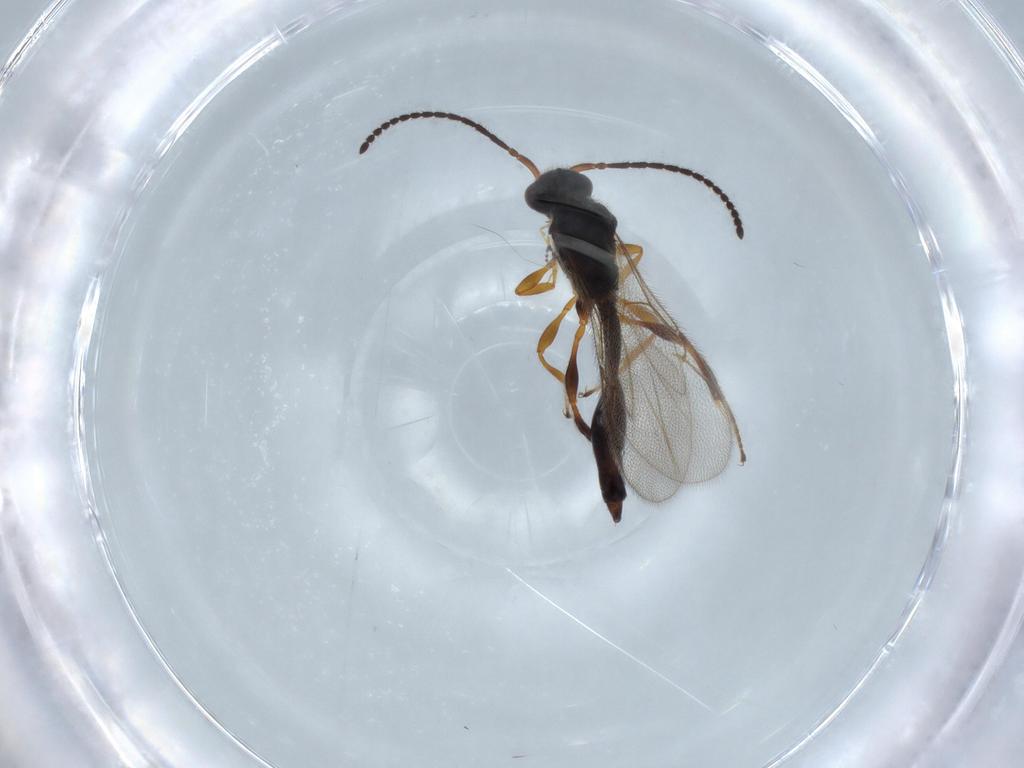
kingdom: Animalia
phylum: Arthropoda
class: Insecta
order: Hymenoptera
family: Diapriidae
